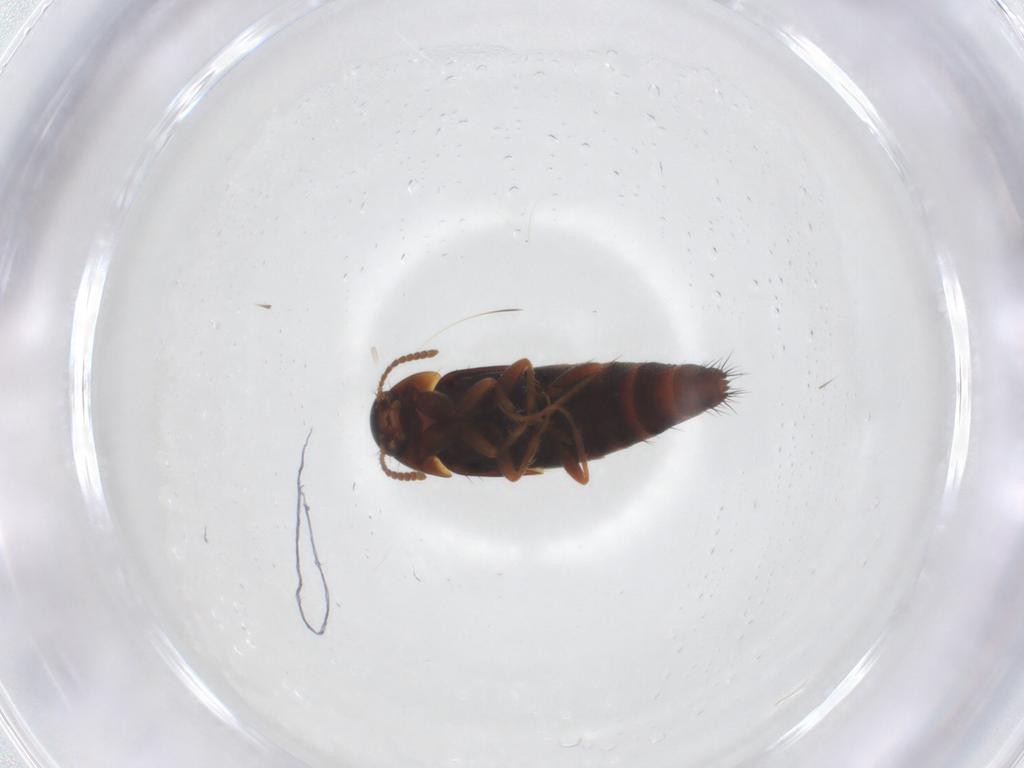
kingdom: Animalia
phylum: Arthropoda
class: Insecta
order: Coleoptera
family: Staphylinidae
